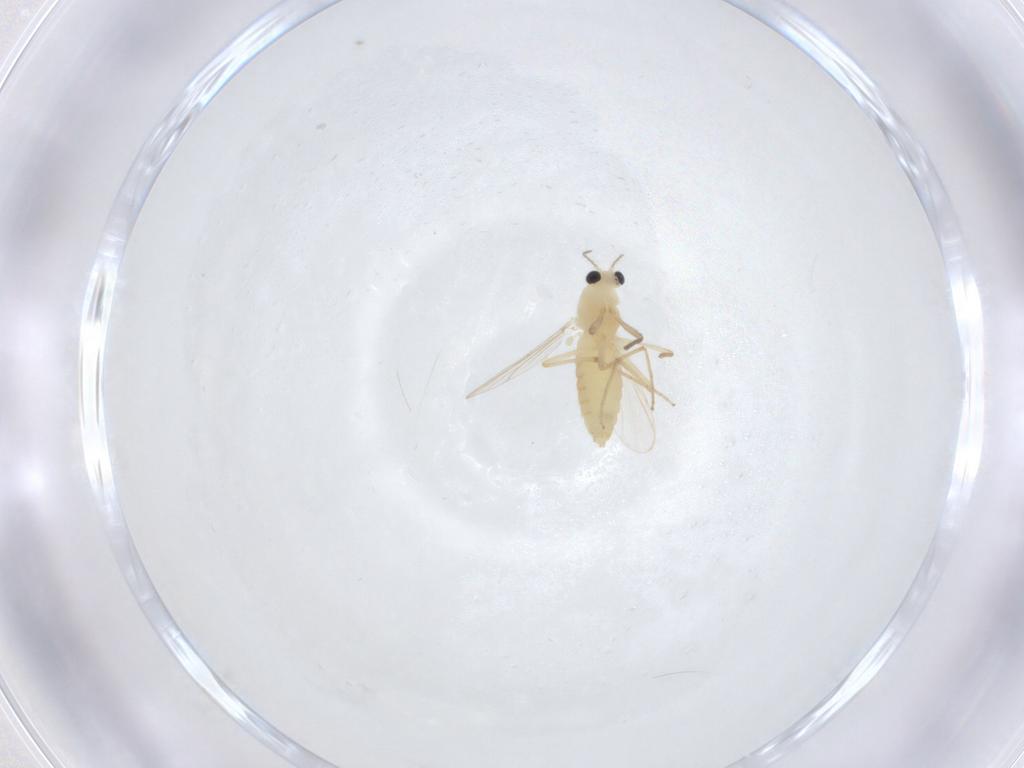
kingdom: Animalia
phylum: Arthropoda
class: Insecta
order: Diptera
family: Chironomidae
